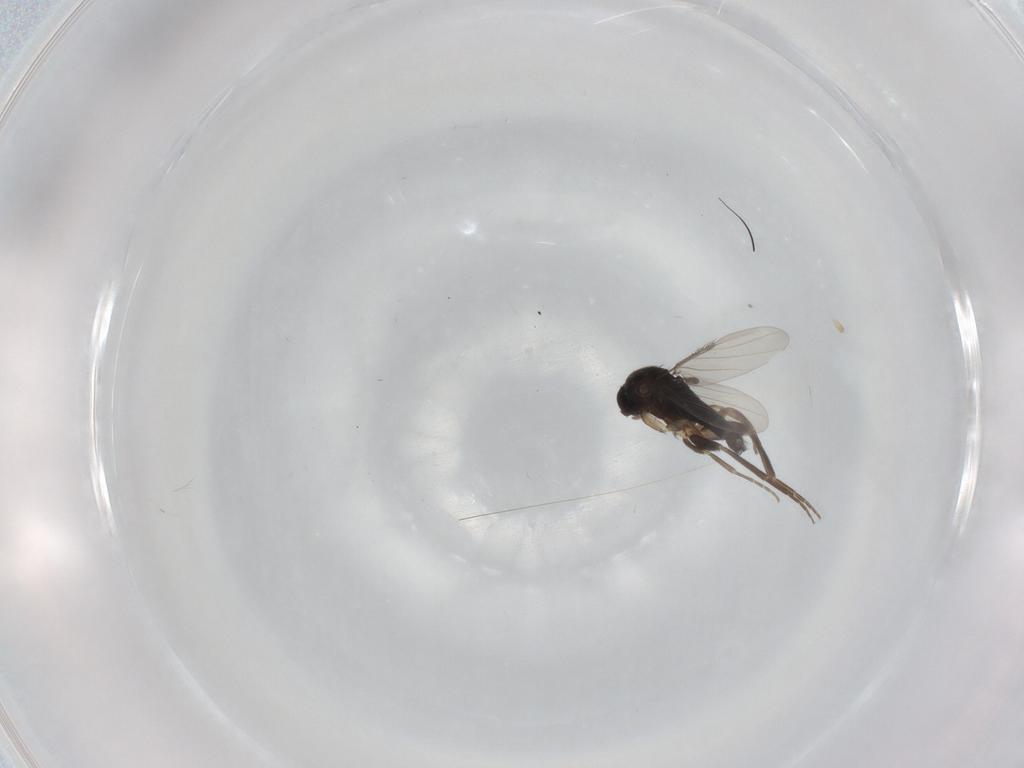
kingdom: Animalia
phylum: Arthropoda
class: Insecta
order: Diptera
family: Phoridae
